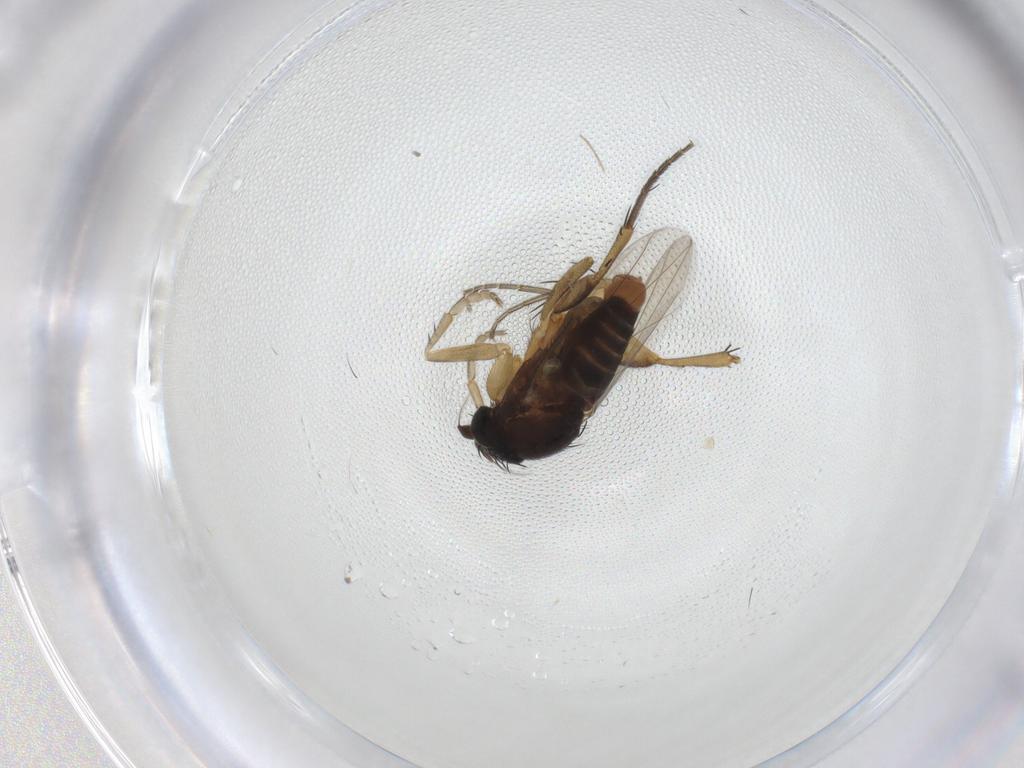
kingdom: Animalia
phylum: Arthropoda
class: Insecta
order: Diptera
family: Phoridae
